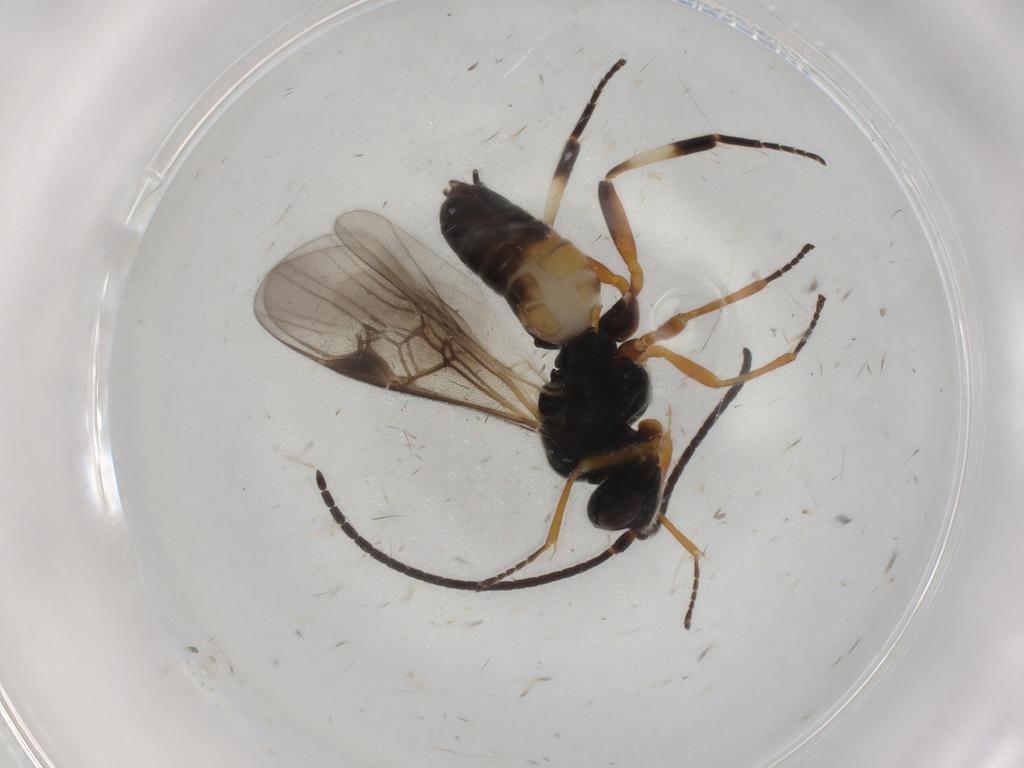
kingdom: Animalia
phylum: Arthropoda
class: Insecta
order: Hymenoptera
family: Braconidae
